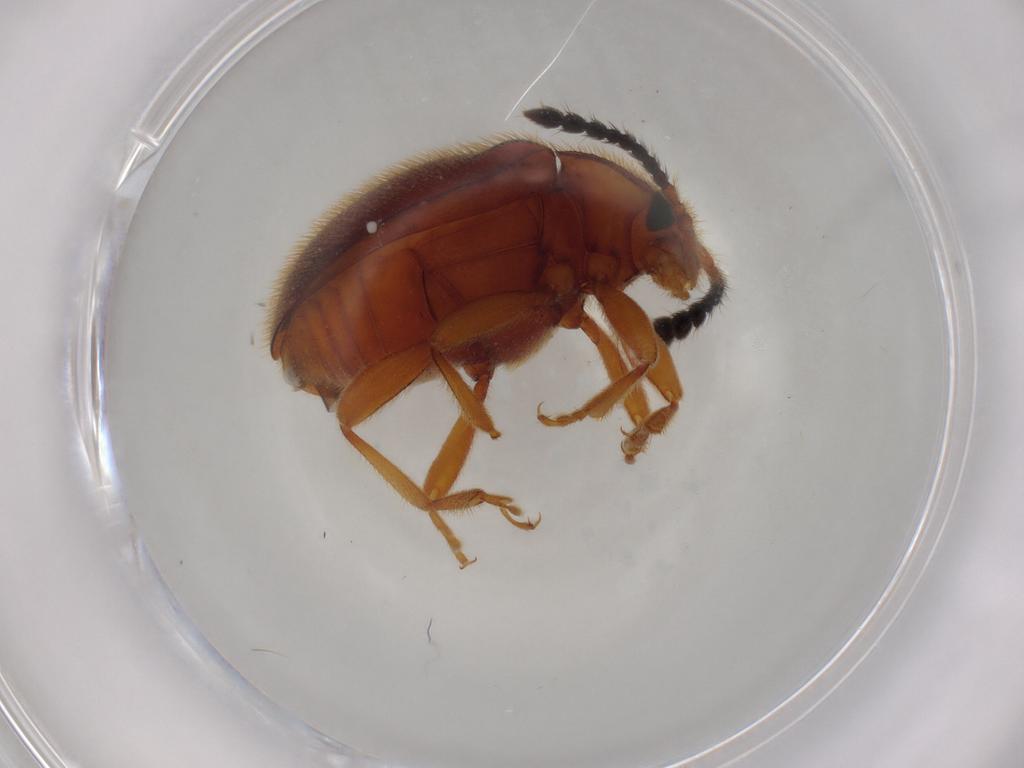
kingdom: Animalia
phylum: Arthropoda
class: Insecta
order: Coleoptera
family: Endomychidae
